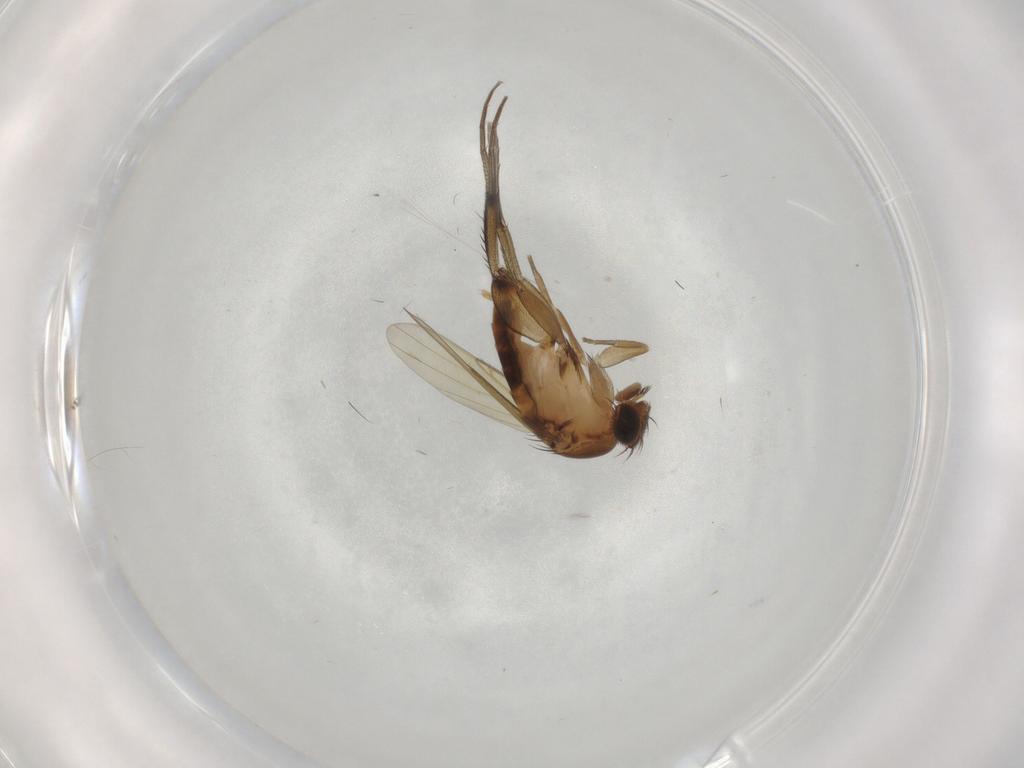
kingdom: Animalia
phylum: Arthropoda
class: Insecta
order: Diptera
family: Phoridae
